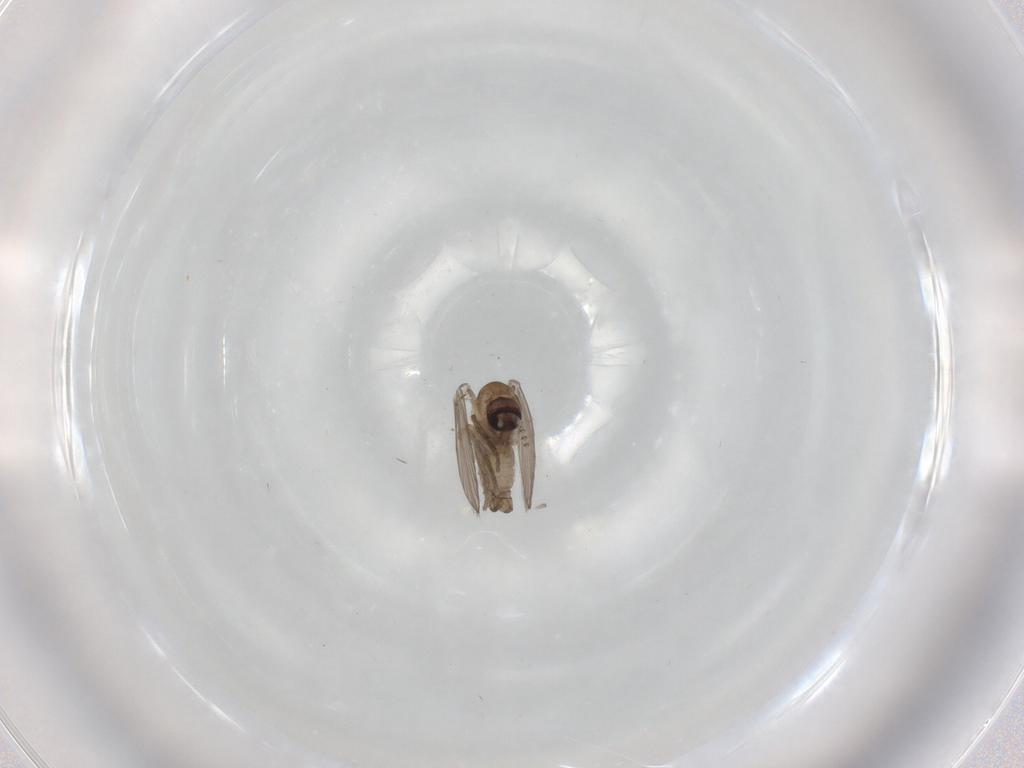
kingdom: Animalia
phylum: Arthropoda
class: Insecta
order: Diptera
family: Psychodidae
